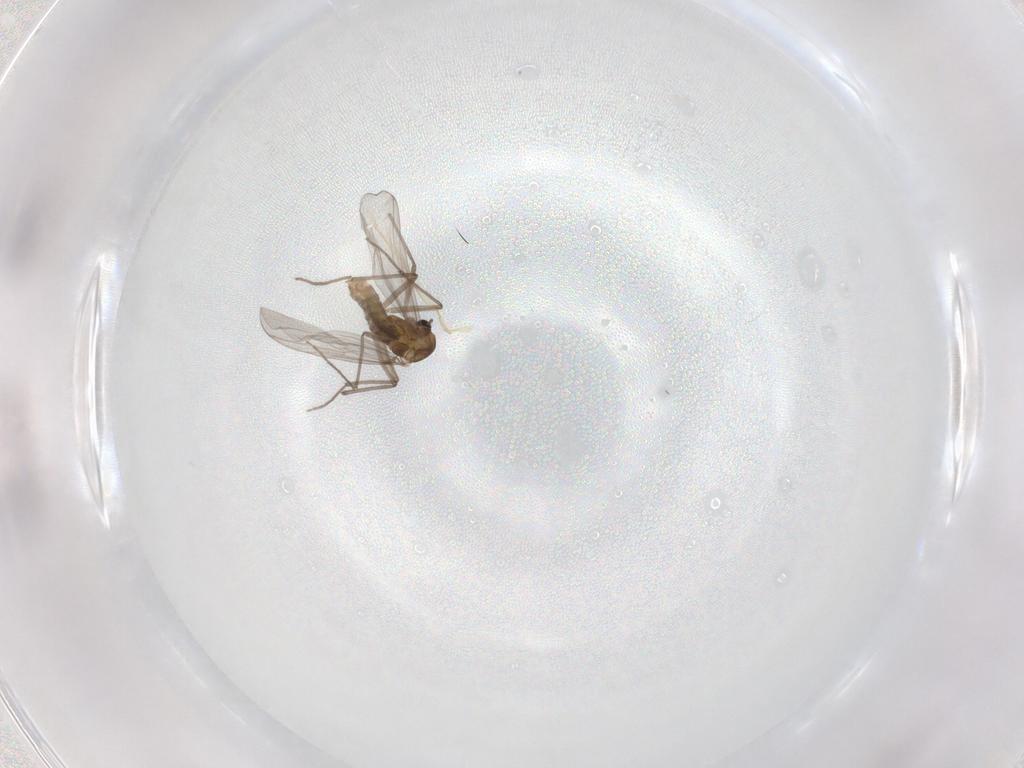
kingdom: Animalia
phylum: Arthropoda
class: Insecta
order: Diptera
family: Chironomidae
